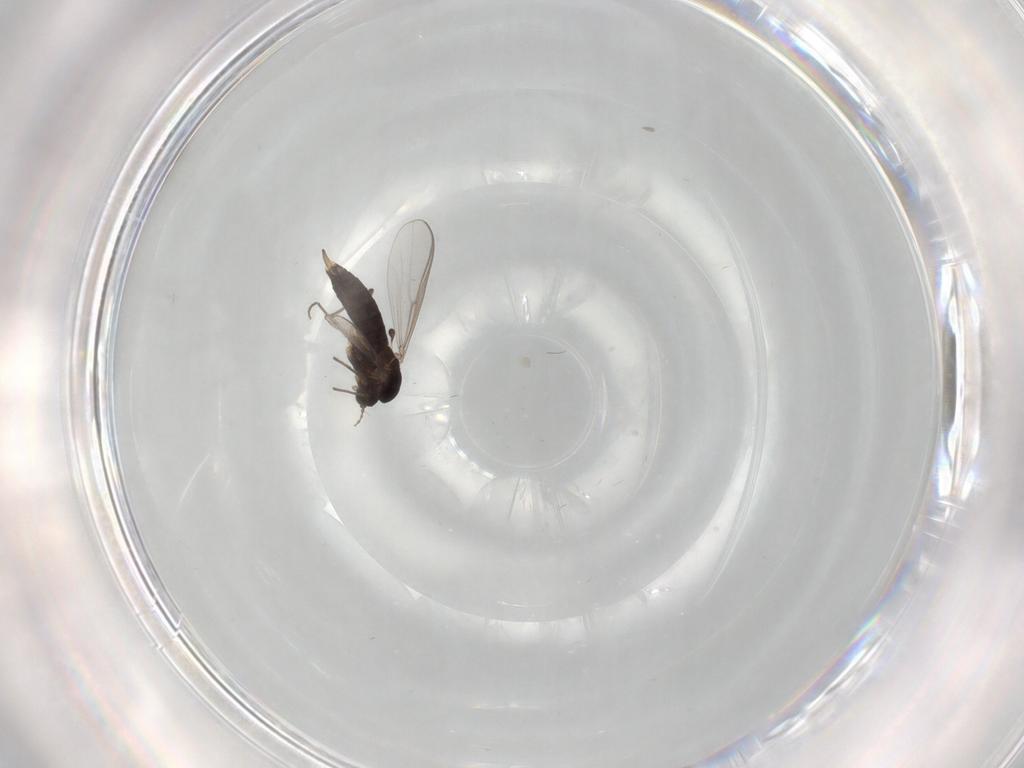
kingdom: Animalia
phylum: Arthropoda
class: Insecta
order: Diptera
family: Chironomidae
